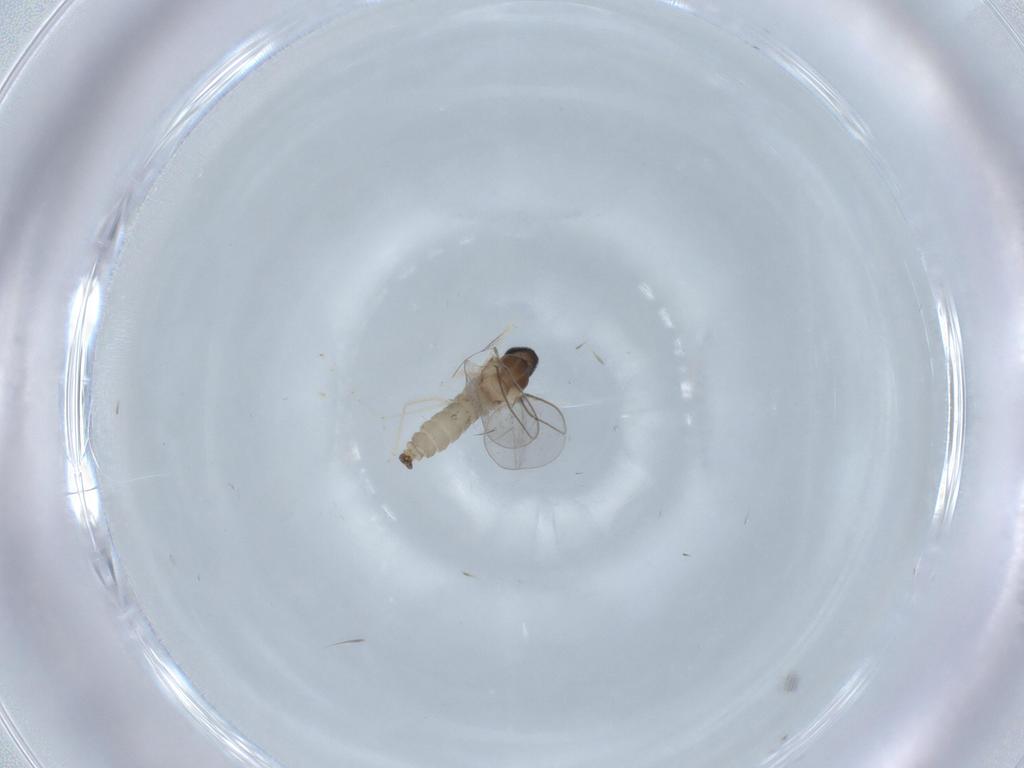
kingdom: Animalia
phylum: Arthropoda
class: Insecta
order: Diptera
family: Cecidomyiidae
